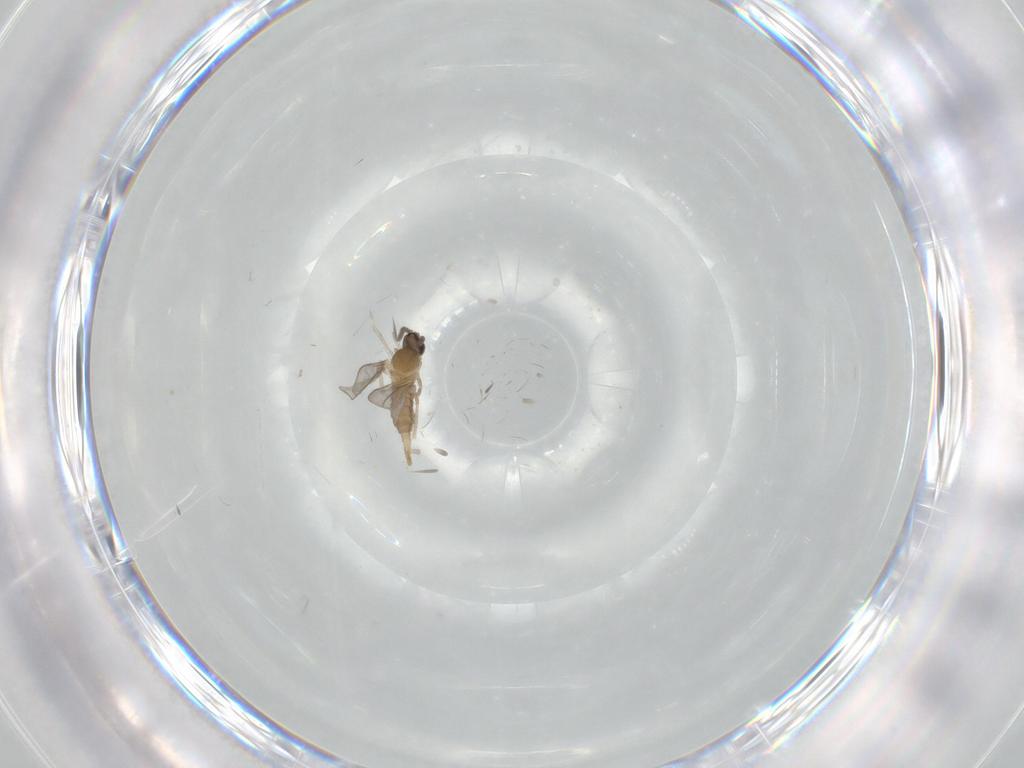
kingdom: Animalia
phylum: Arthropoda
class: Insecta
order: Diptera
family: Cecidomyiidae
